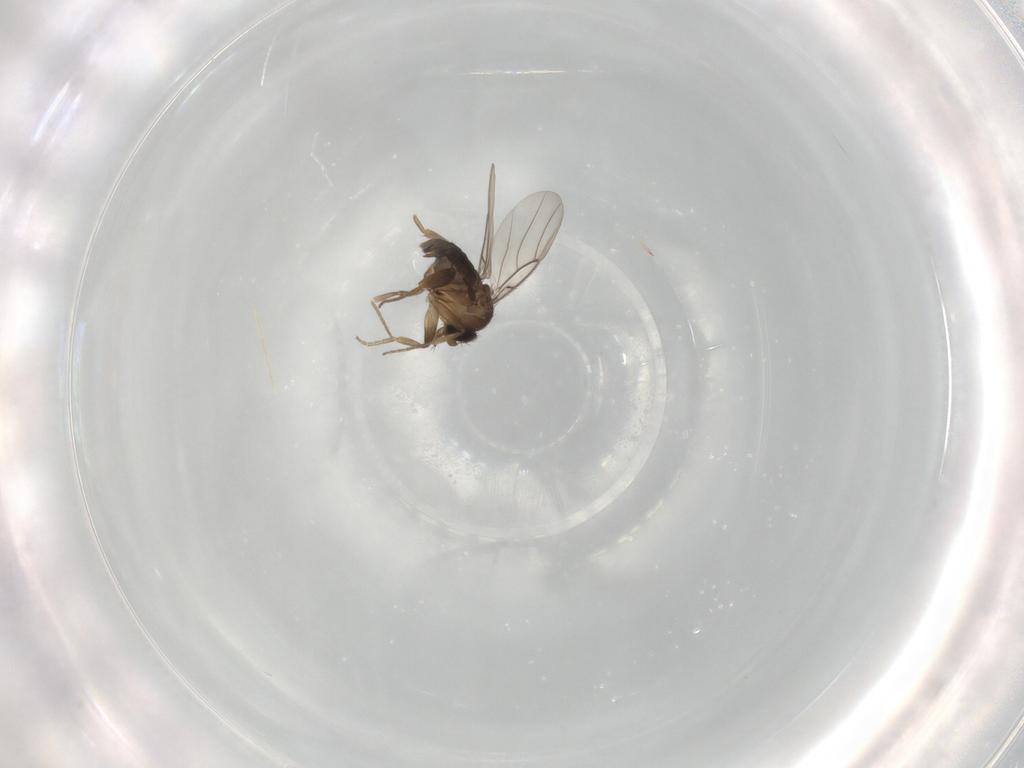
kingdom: Animalia
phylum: Arthropoda
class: Insecta
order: Diptera
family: Phoridae
